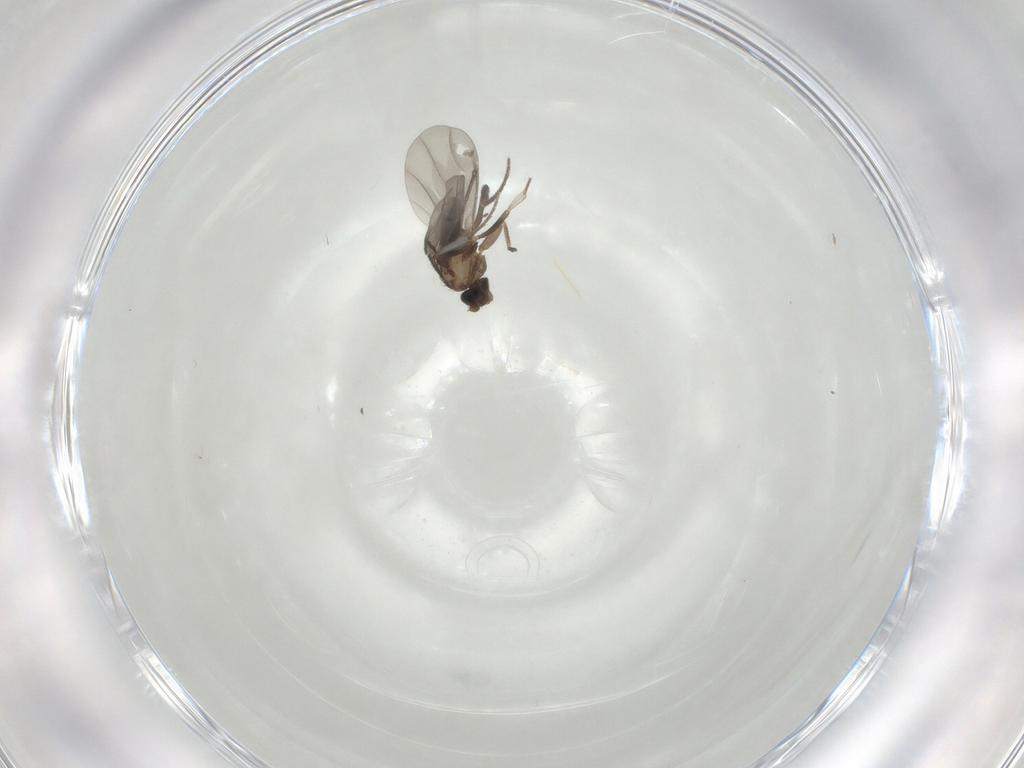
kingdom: Animalia
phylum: Arthropoda
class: Insecta
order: Diptera
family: Phoridae
